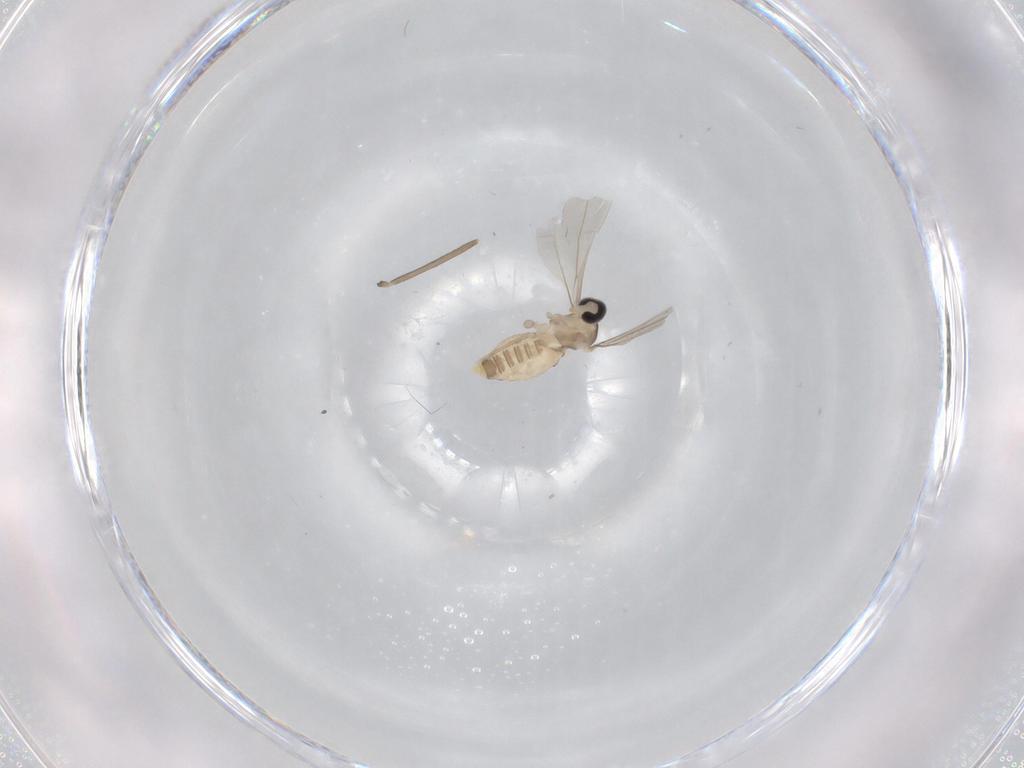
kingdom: Animalia
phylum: Arthropoda
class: Insecta
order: Diptera
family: Cecidomyiidae
